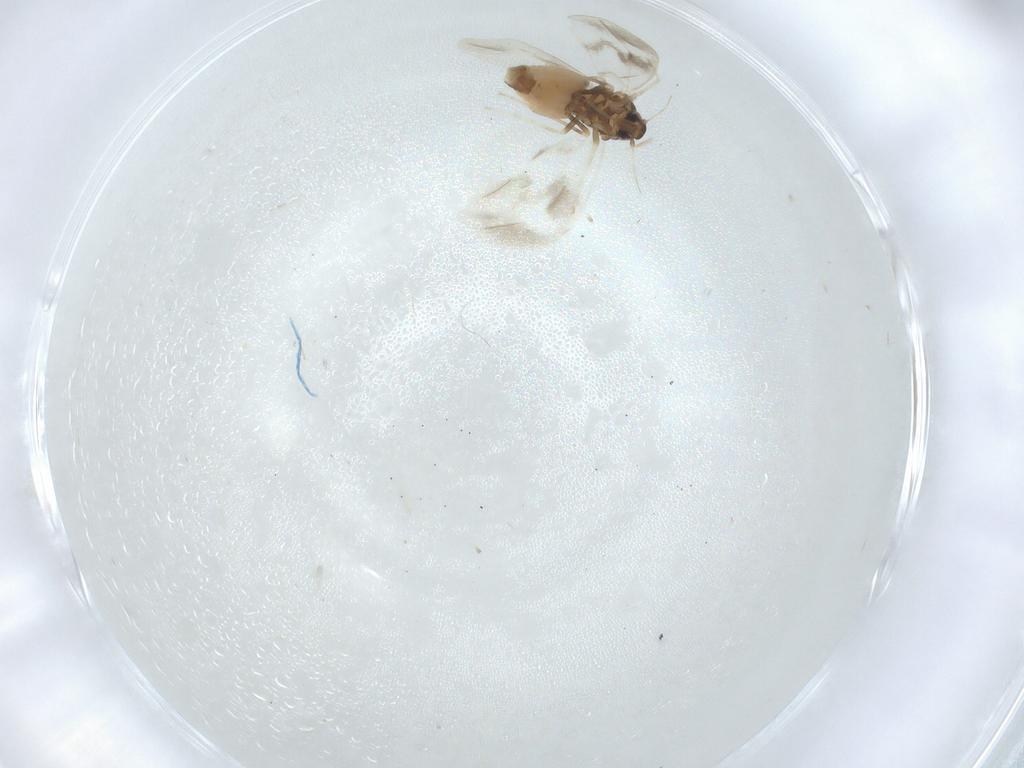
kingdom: Animalia
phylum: Arthropoda
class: Insecta
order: Hemiptera
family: Aleyrodidae
